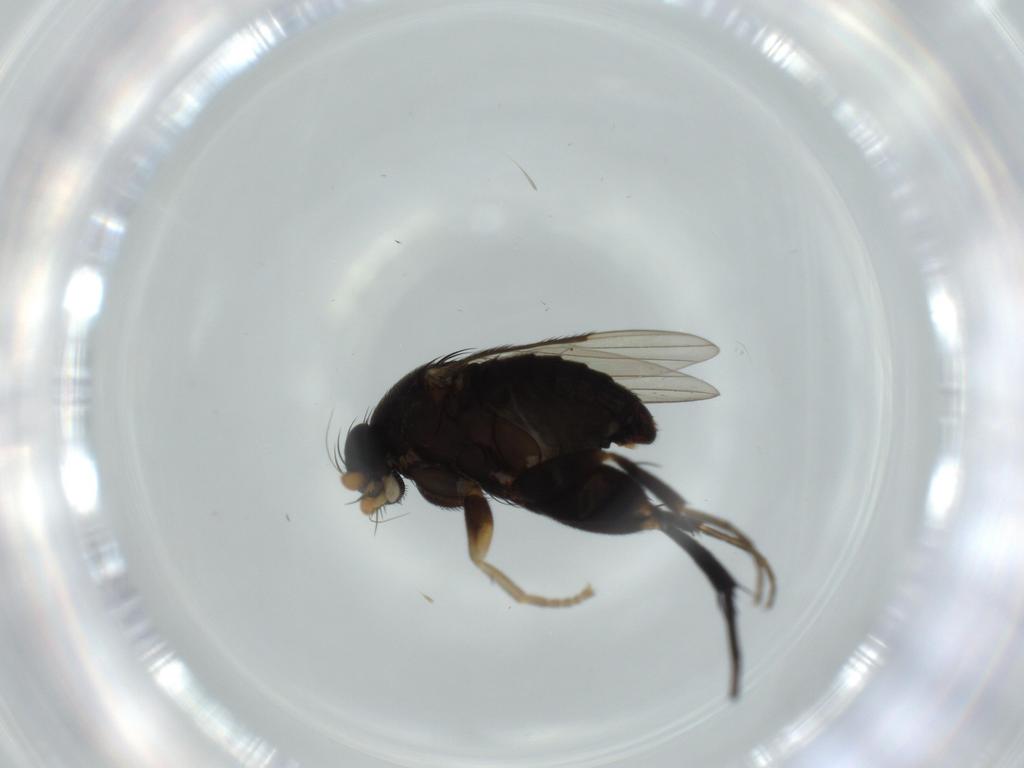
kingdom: Animalia
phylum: Arthropoda
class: Insecta
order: Diptera
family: Phoridae
